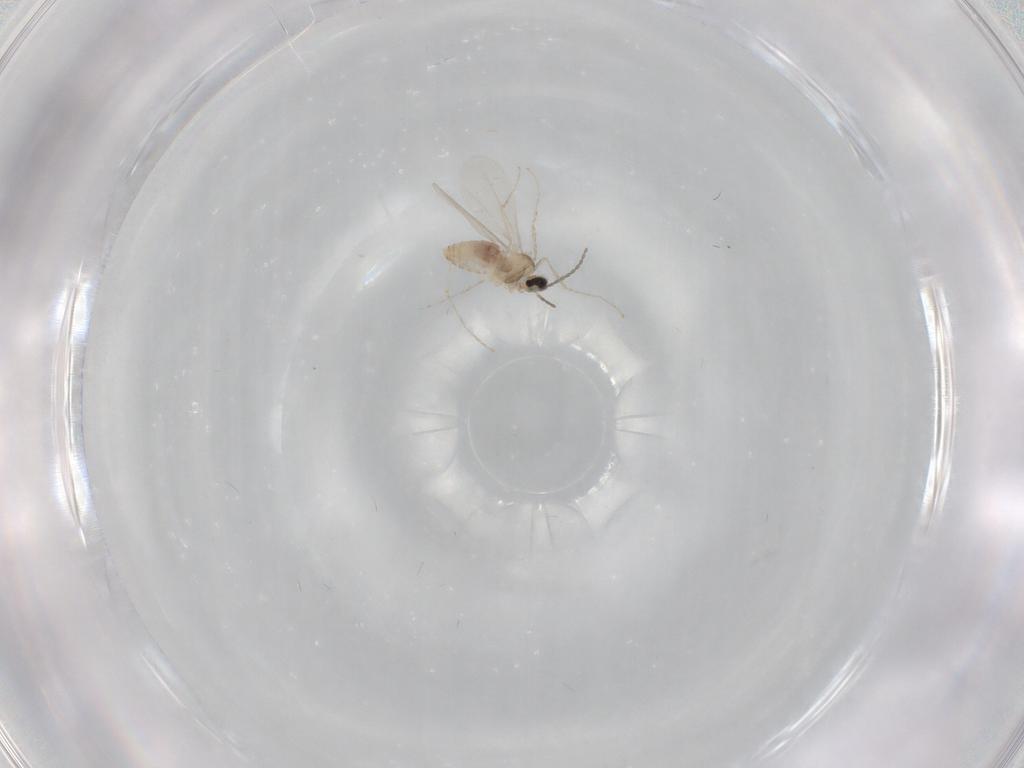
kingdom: Animalia
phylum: Arthropoda
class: Insecta
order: Diptera
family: Cecidomyiidae
